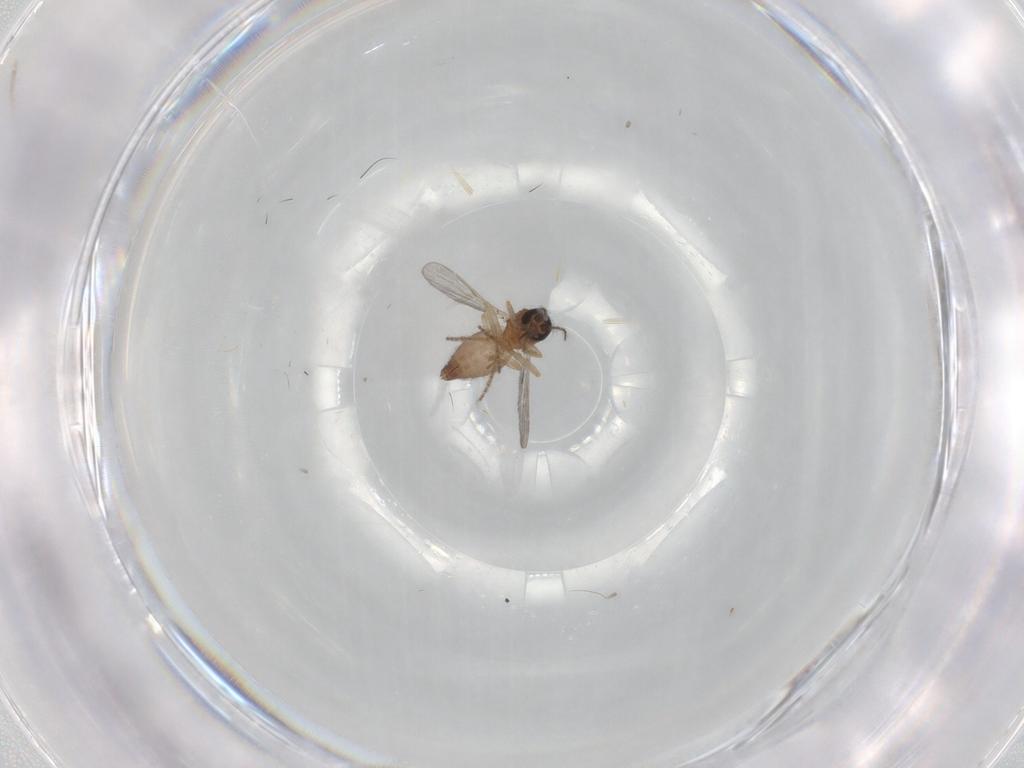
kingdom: Animalia
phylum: Arthropoda
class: Insecta
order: Diptera
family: Ceratopogonidae
